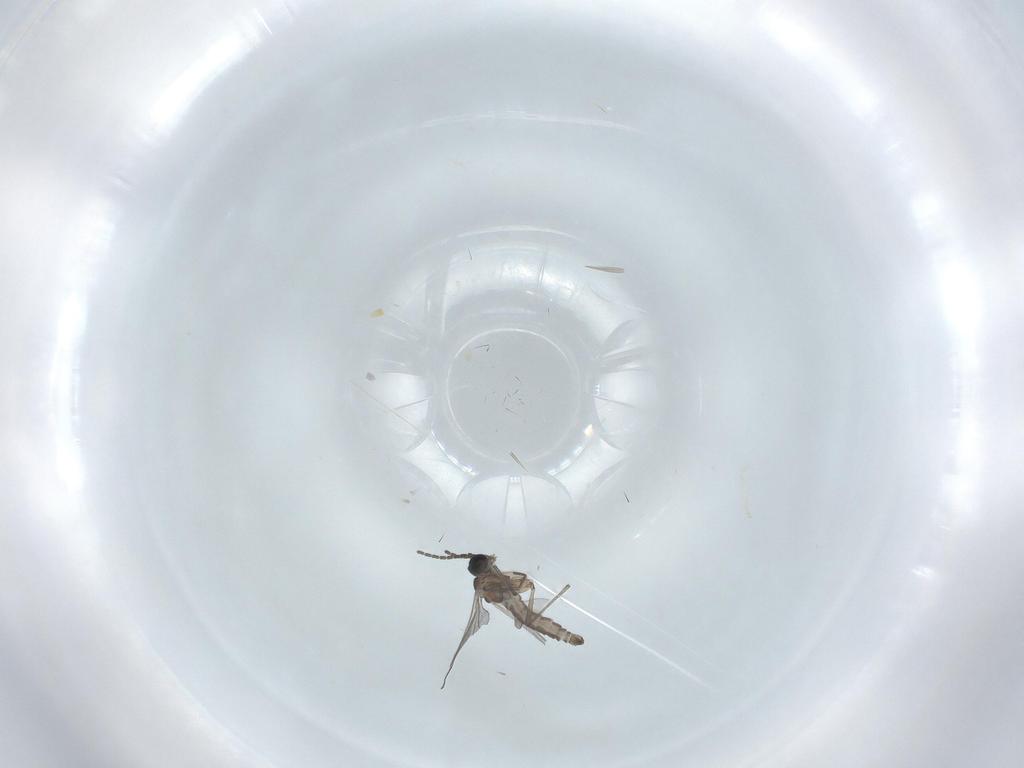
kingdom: Animalia
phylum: Arthropoda
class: Insecta
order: Diptera
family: Sciaridae
